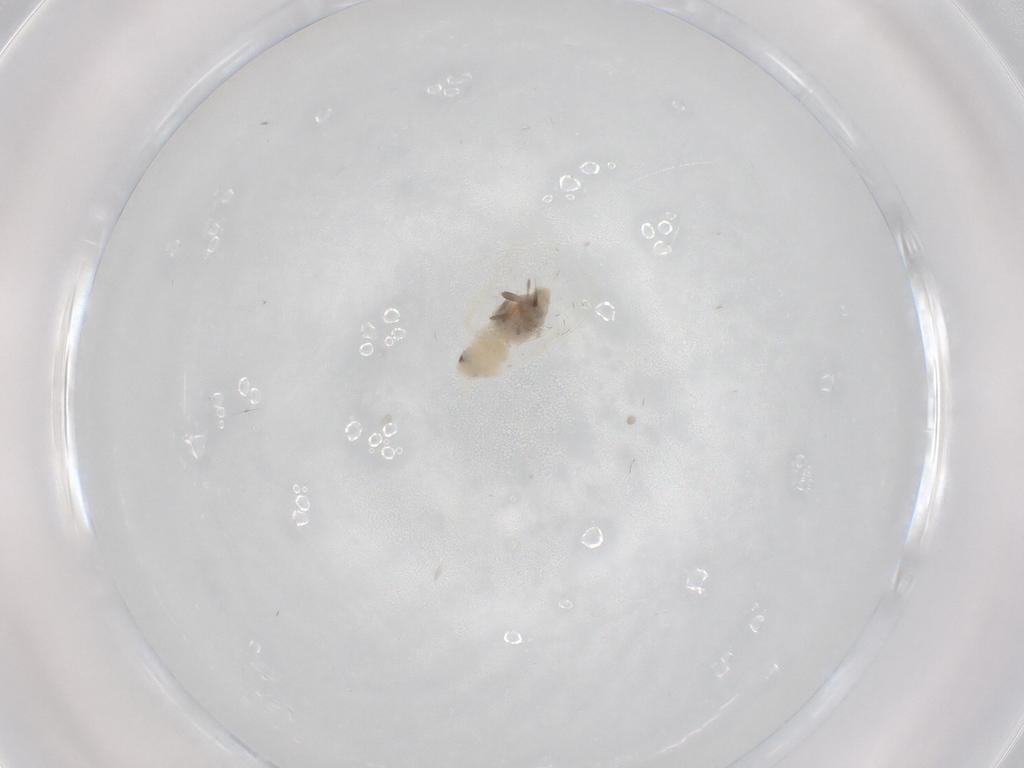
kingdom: Animalia
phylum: Arthropoda
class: Insecta
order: Hemiptera
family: Aleyrodidae
